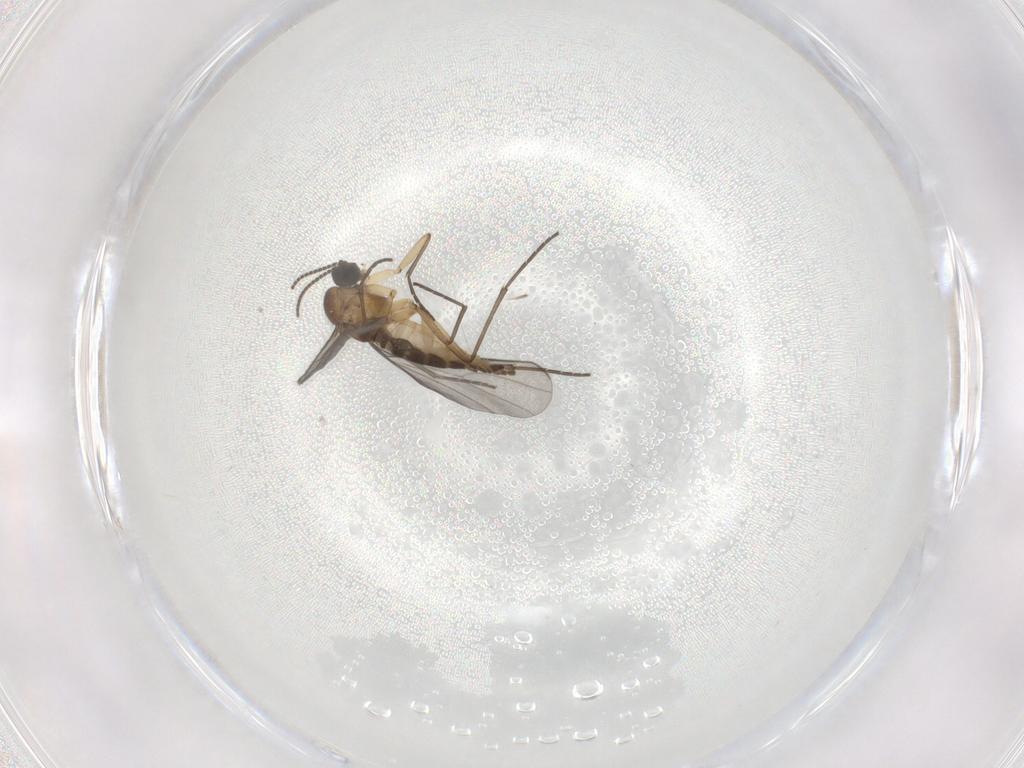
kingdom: Animalia
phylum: Arthropoda
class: Insecta
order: Diptera
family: Sciaridae
